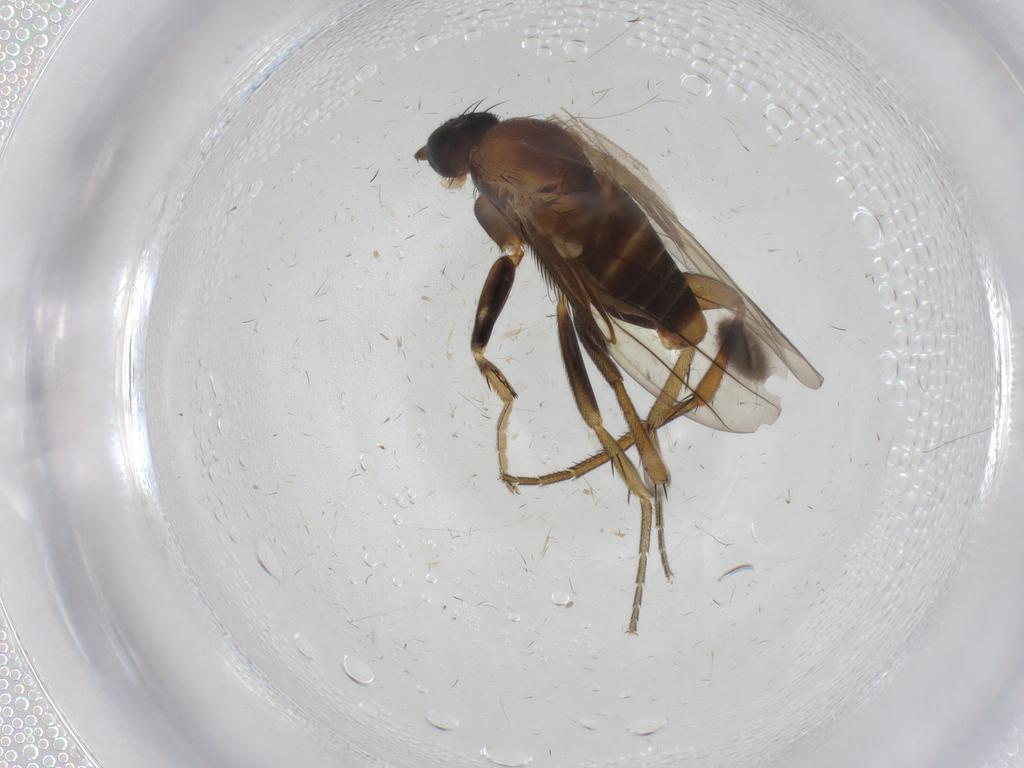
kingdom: Animalia
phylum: Arthropoda
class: Insecta
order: Diptera
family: Phoridae
